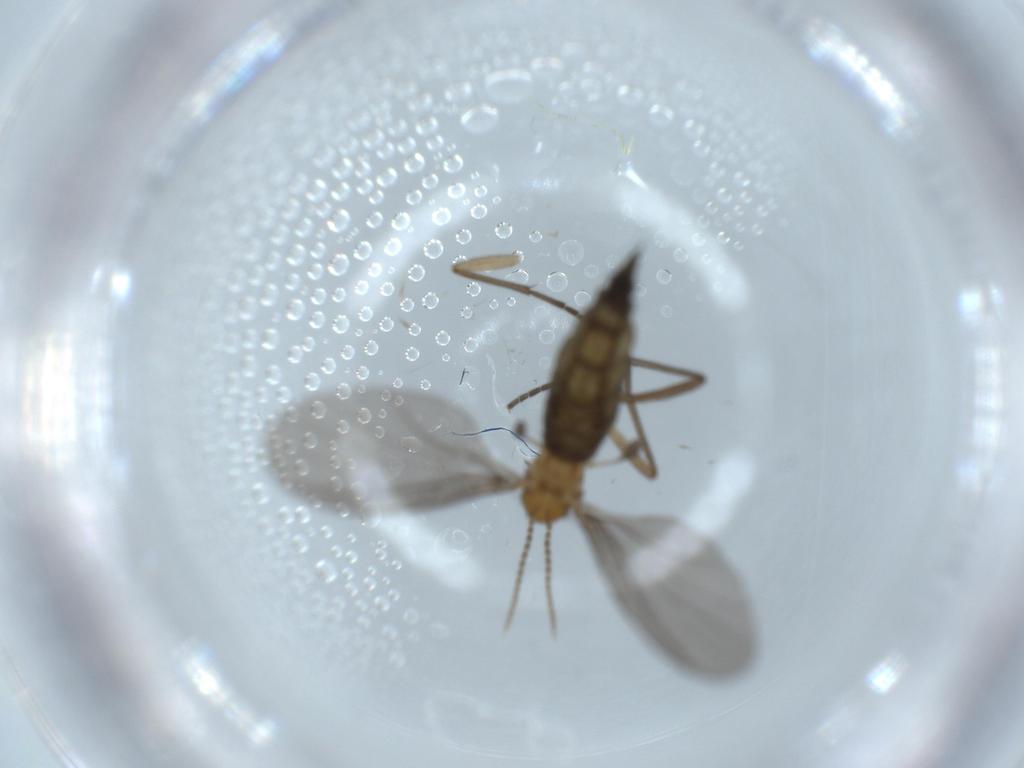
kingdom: Animalia
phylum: Arthropoda
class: Insecta
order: Diptera
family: Sciaridae
